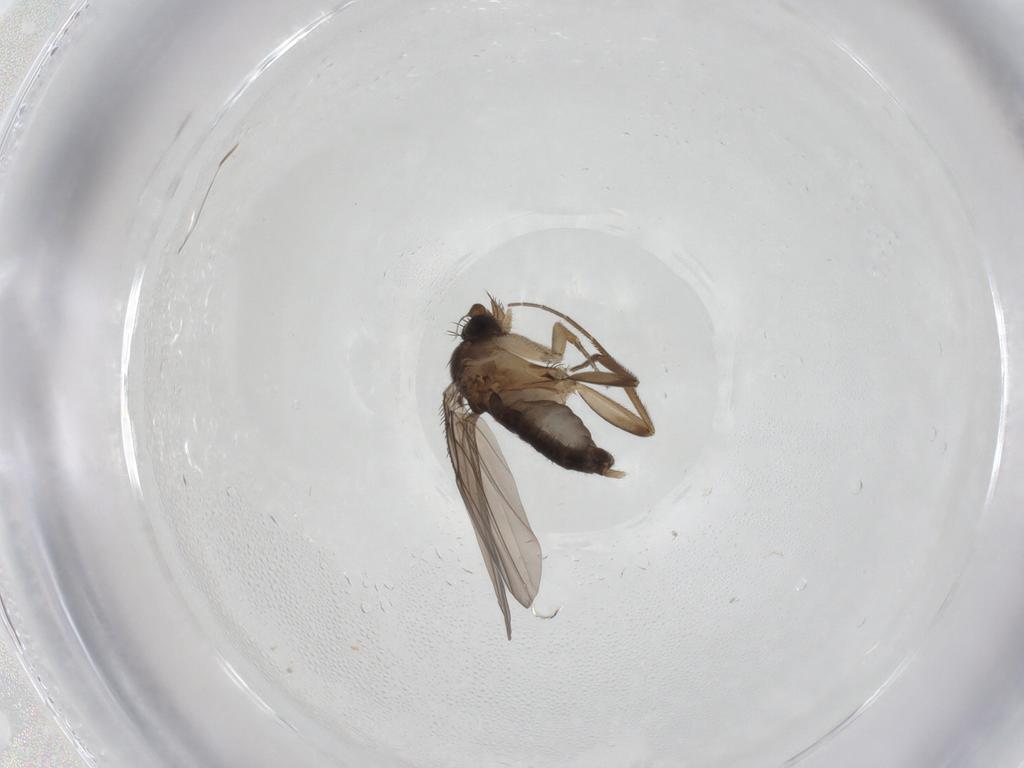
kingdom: Animalia
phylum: Arthropoda
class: Insecta
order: Diptera
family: Phoridae
